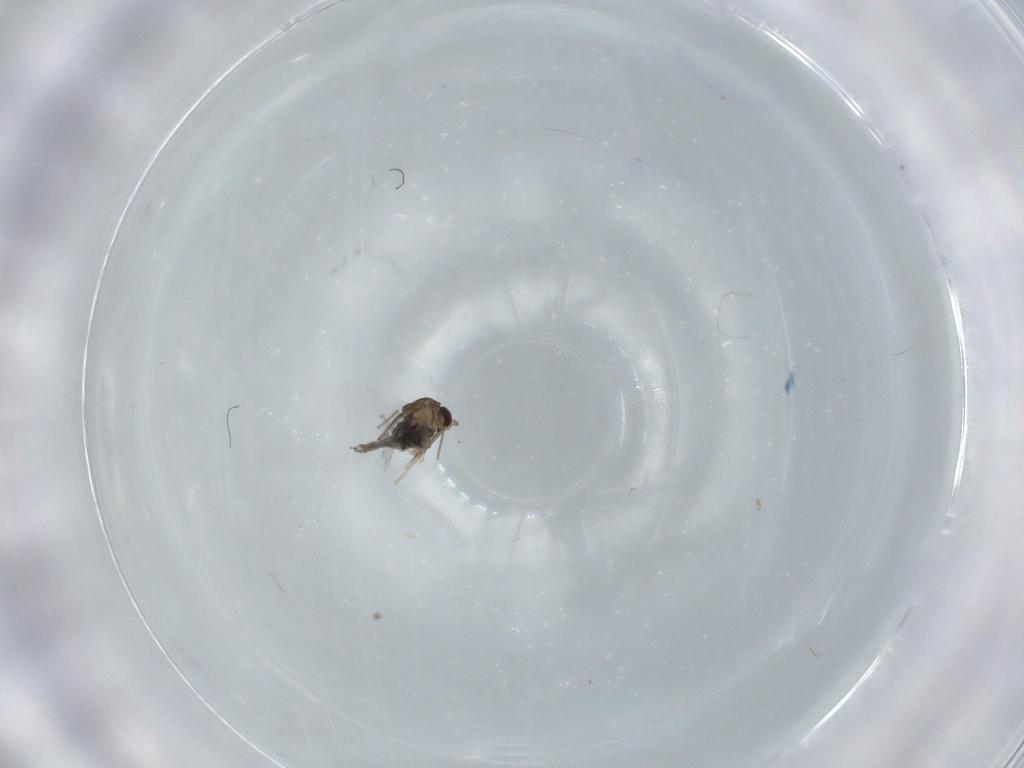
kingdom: Animalia
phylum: Arthropoda
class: Insecta
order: Diptera
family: Cecidomyiidae
